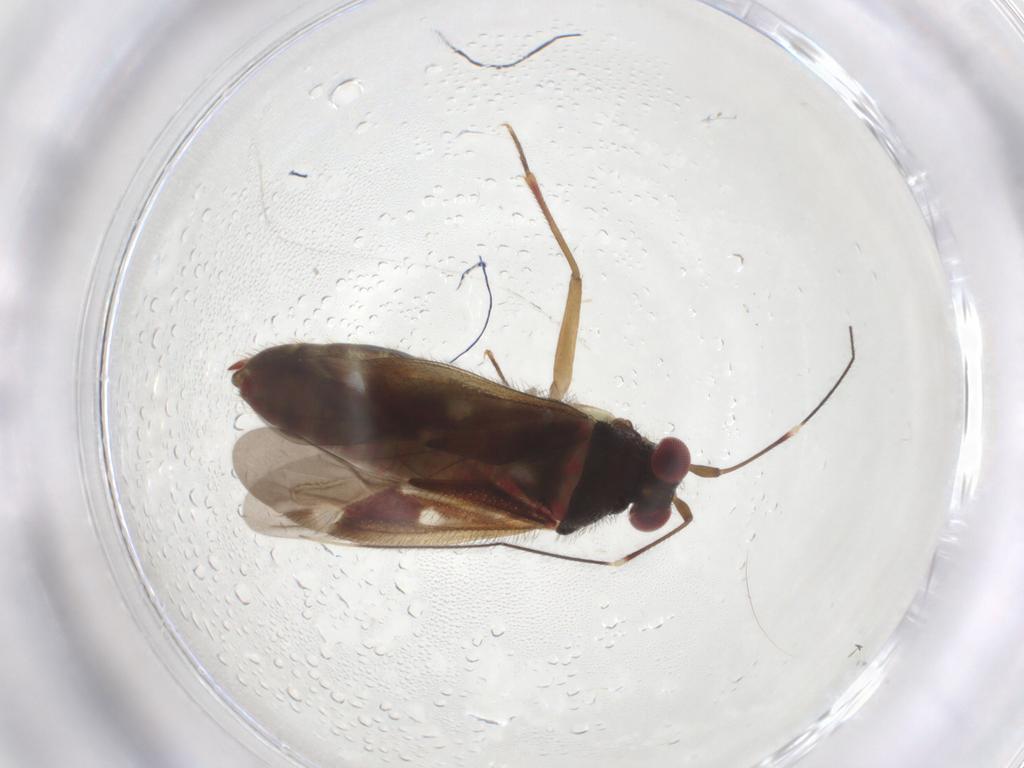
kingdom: Animalia
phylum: Arthropoda
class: Insecta
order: Hemiptera
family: Miridae
